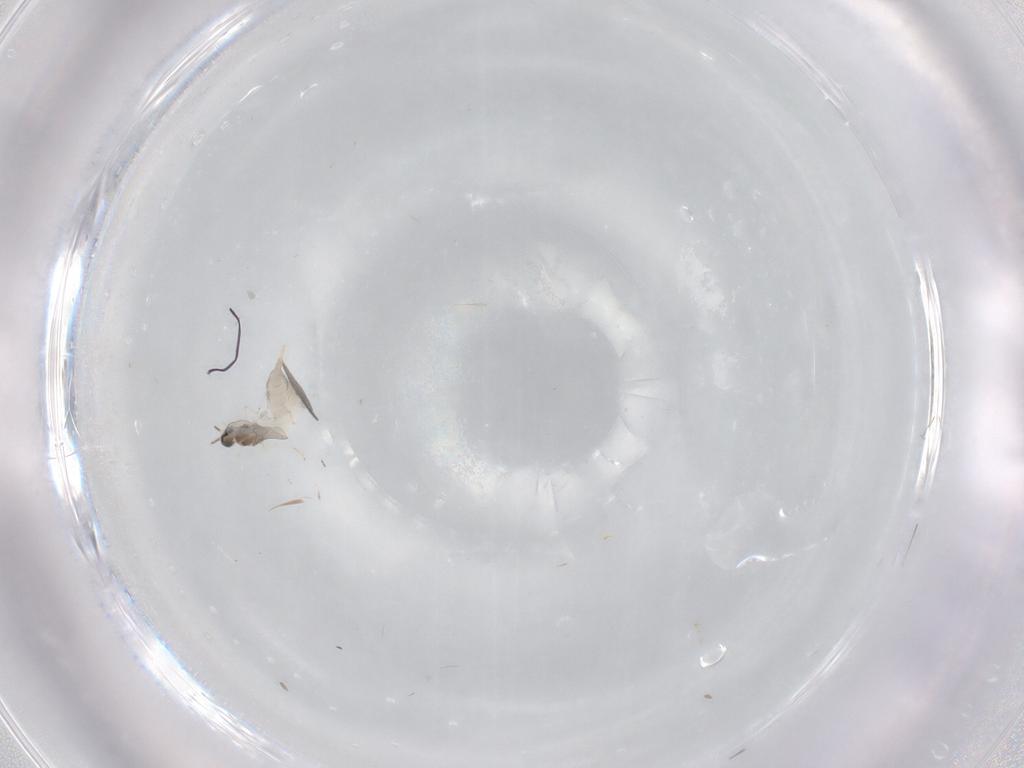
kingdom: Animalia
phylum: Arthropoda
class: Insecta
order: Diptera
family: Phoridae
